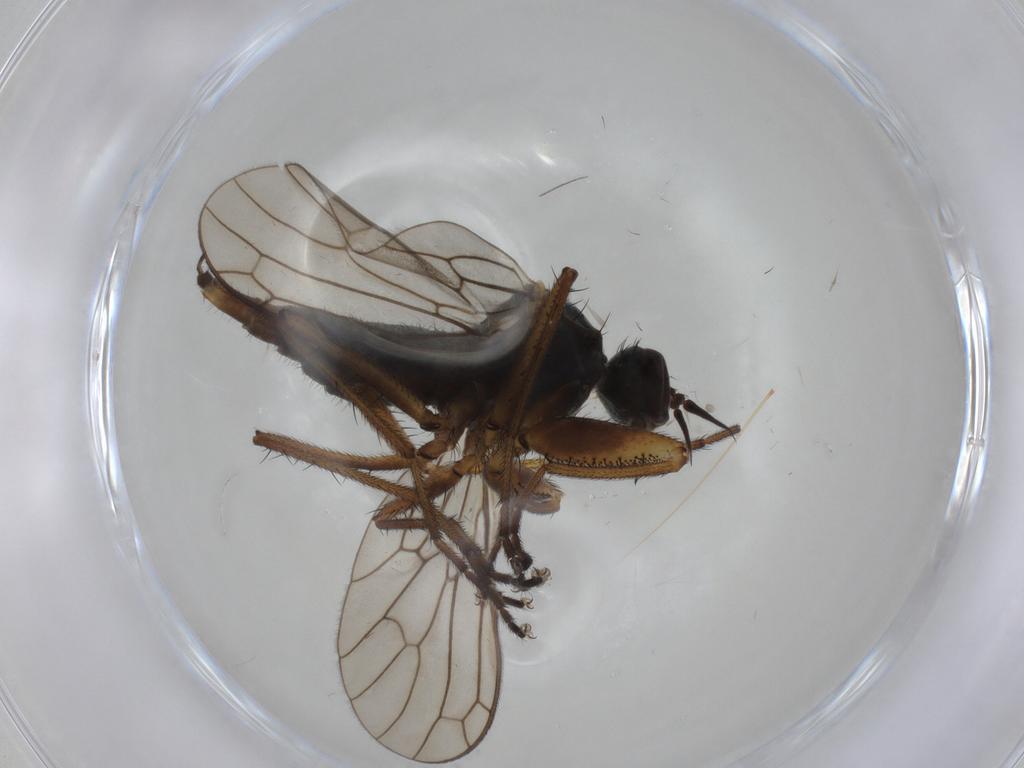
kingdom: Animalia
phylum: Arthropoda
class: Insecta
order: Diptera
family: Empididae
